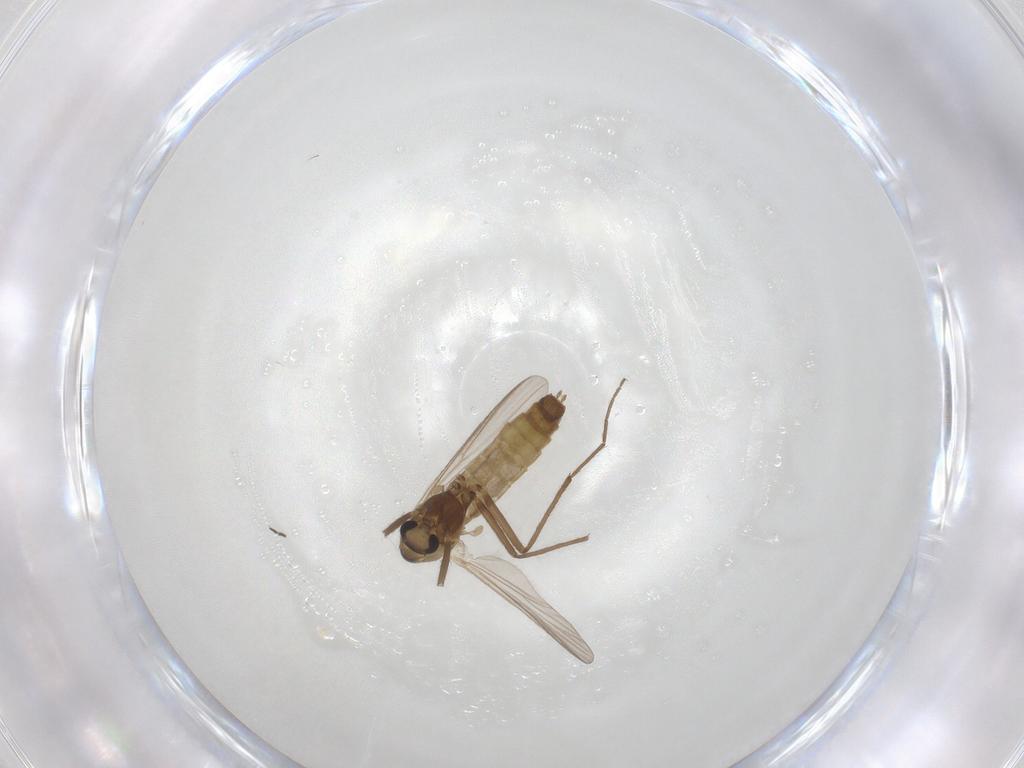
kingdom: Animalia
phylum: Arthropoda
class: Insecta
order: Diptera
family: Chironomidae
